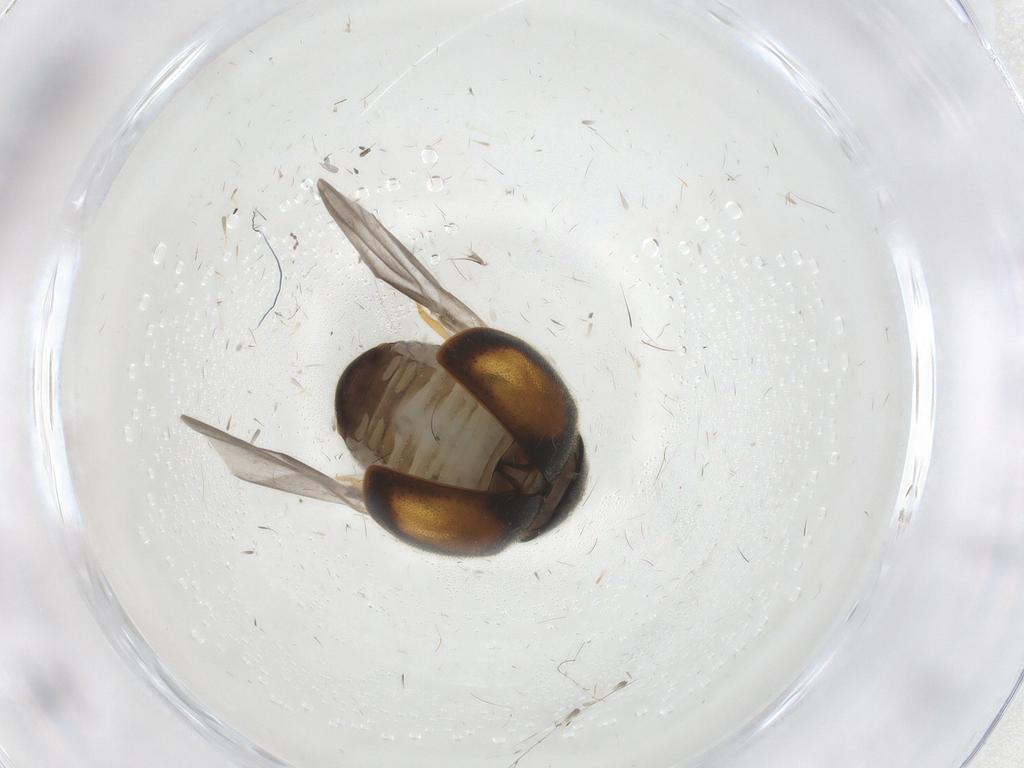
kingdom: Animalia
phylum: Arthropoda
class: Insecta
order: Coleoptera
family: Coccinellidae
